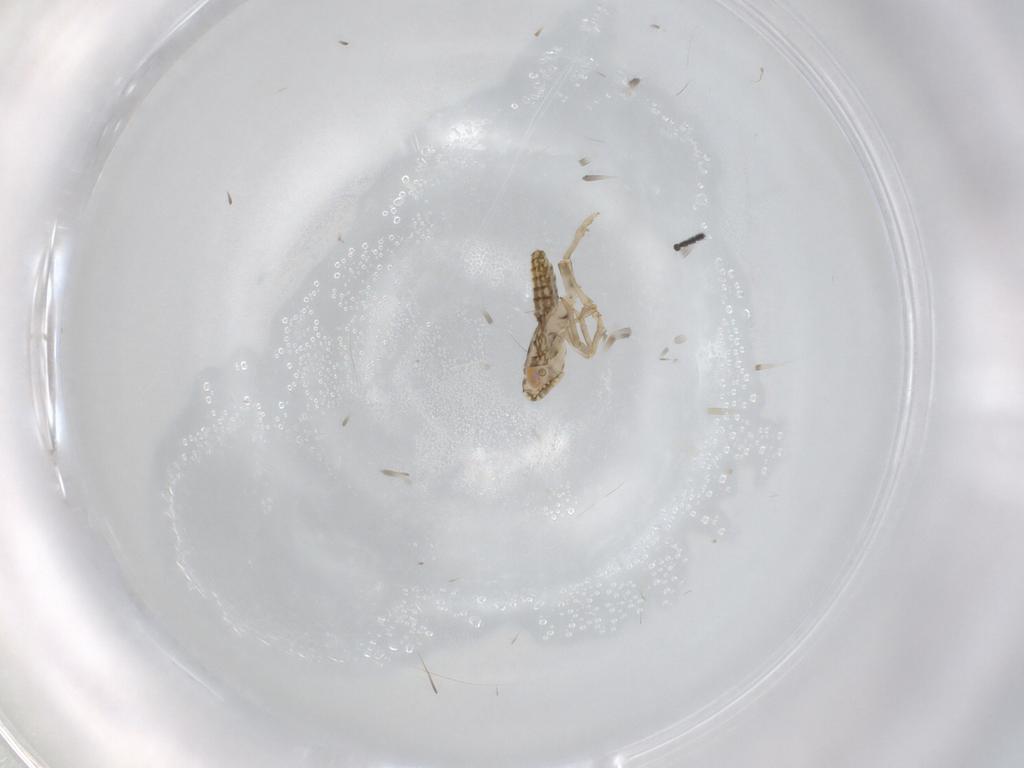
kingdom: Animalia
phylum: Arthropoda
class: Insecta
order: Hemiptera
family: Delphacidae
